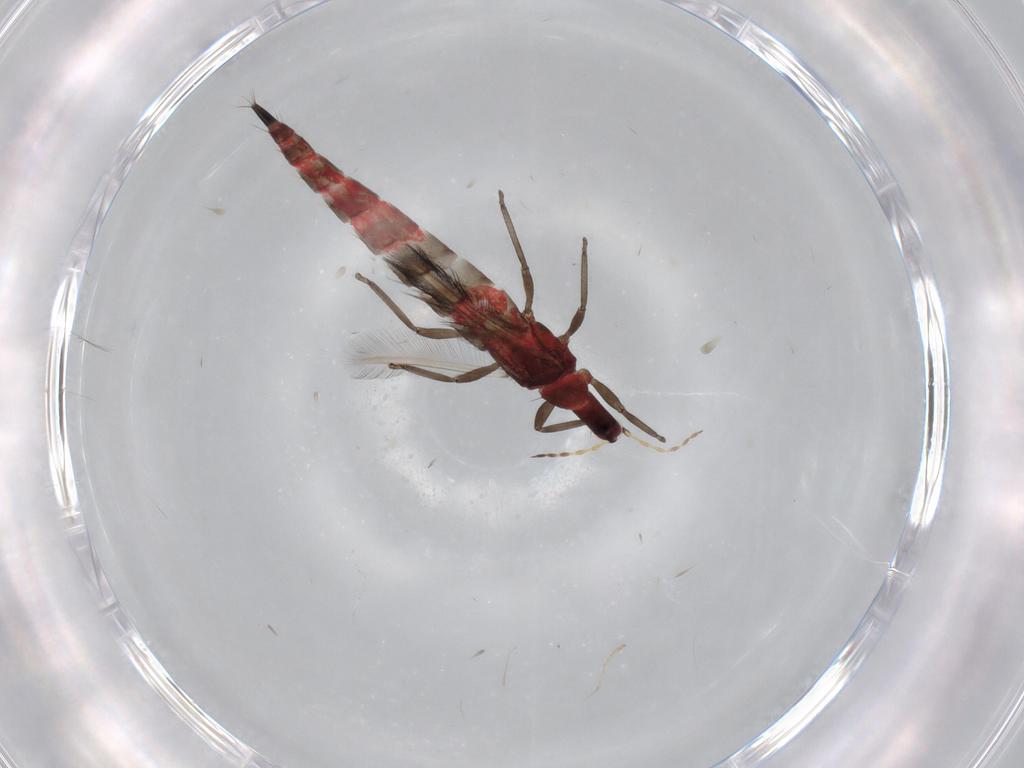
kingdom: Animalia
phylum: Arthropoda
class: Insecta
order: Thysanoptera
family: Phlaeothripidae
